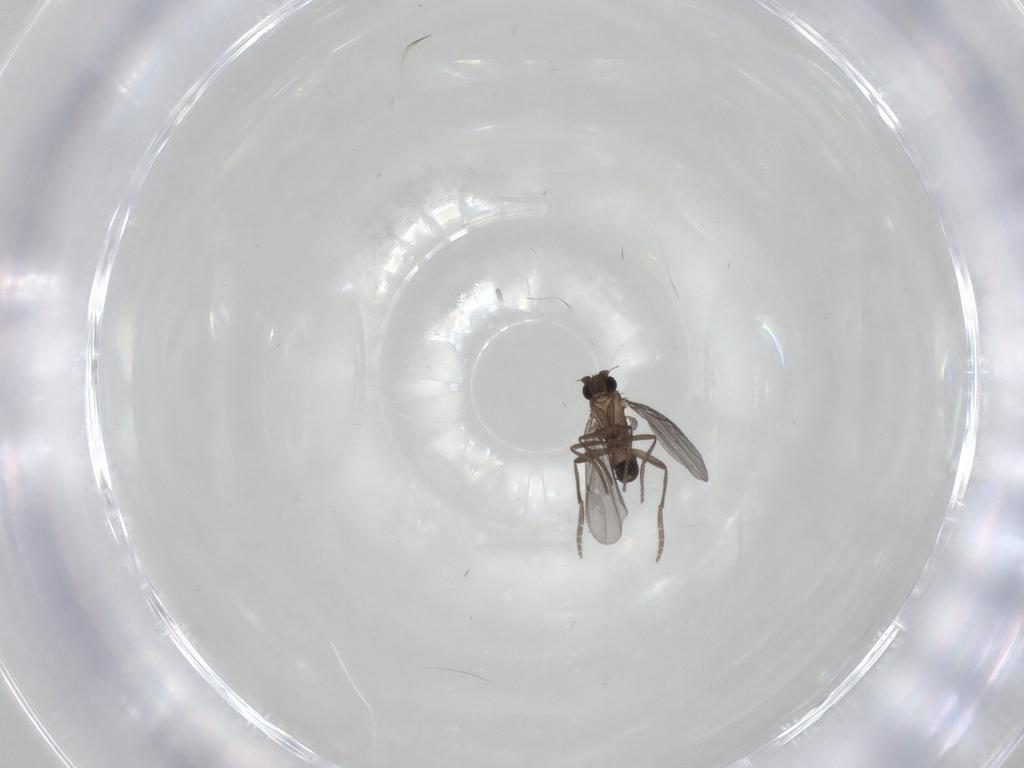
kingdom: Animalia
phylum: Arthropoda
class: Insecta
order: Diptera
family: Phoridae
